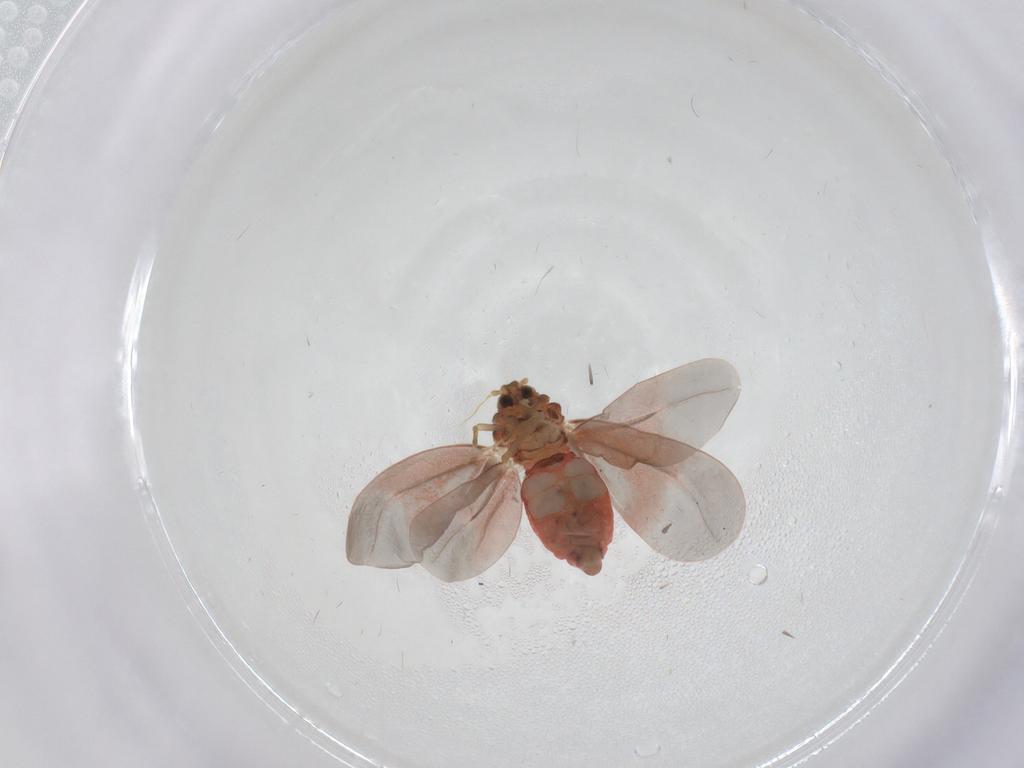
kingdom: Animalia
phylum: Arthropoda
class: Insecta
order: Hemiptera
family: Aleyrodidae
